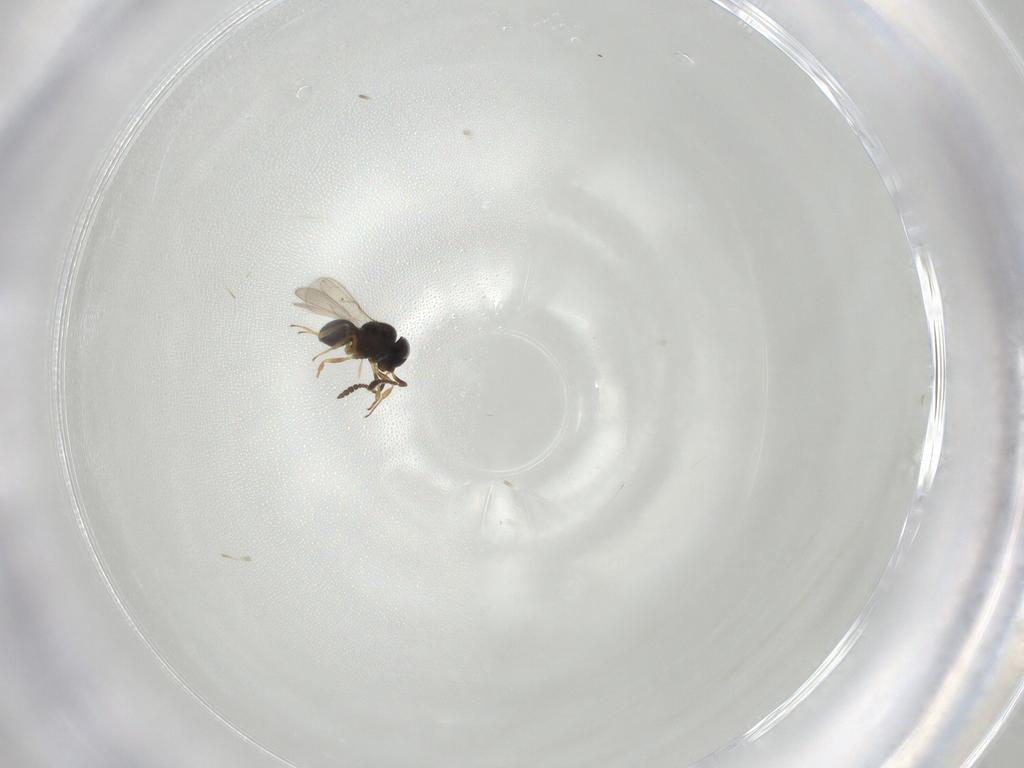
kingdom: Animalia
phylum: Arthropoda
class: Insecta
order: Hymenoptera
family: Scelionidae
